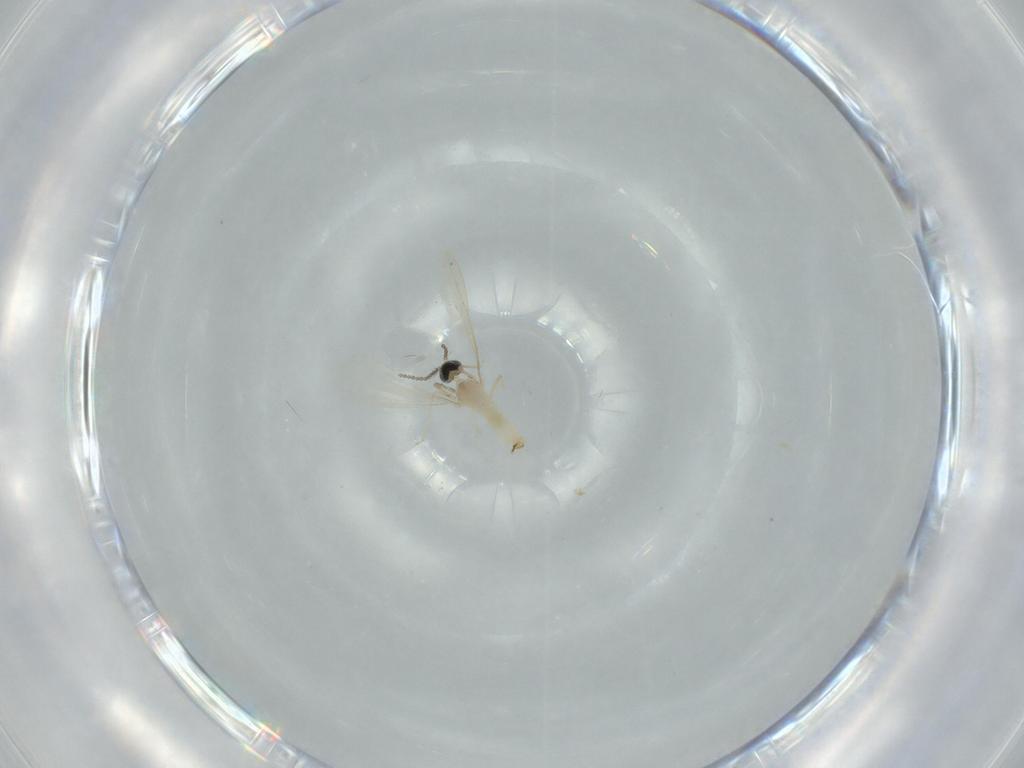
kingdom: Animalia
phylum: Arthropoda
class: Insecta
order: Diptera
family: Cecidomyiidae
